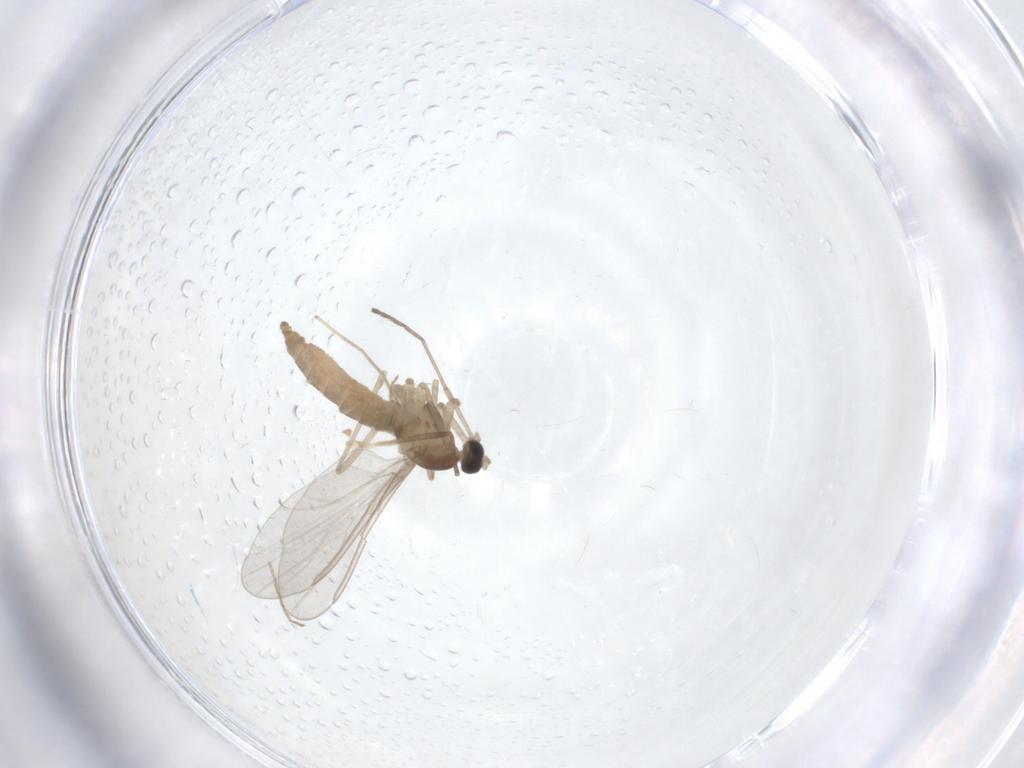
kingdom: Animalia
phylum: Arthropoda
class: Insecta
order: Diptera
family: Cecidomyiidae
